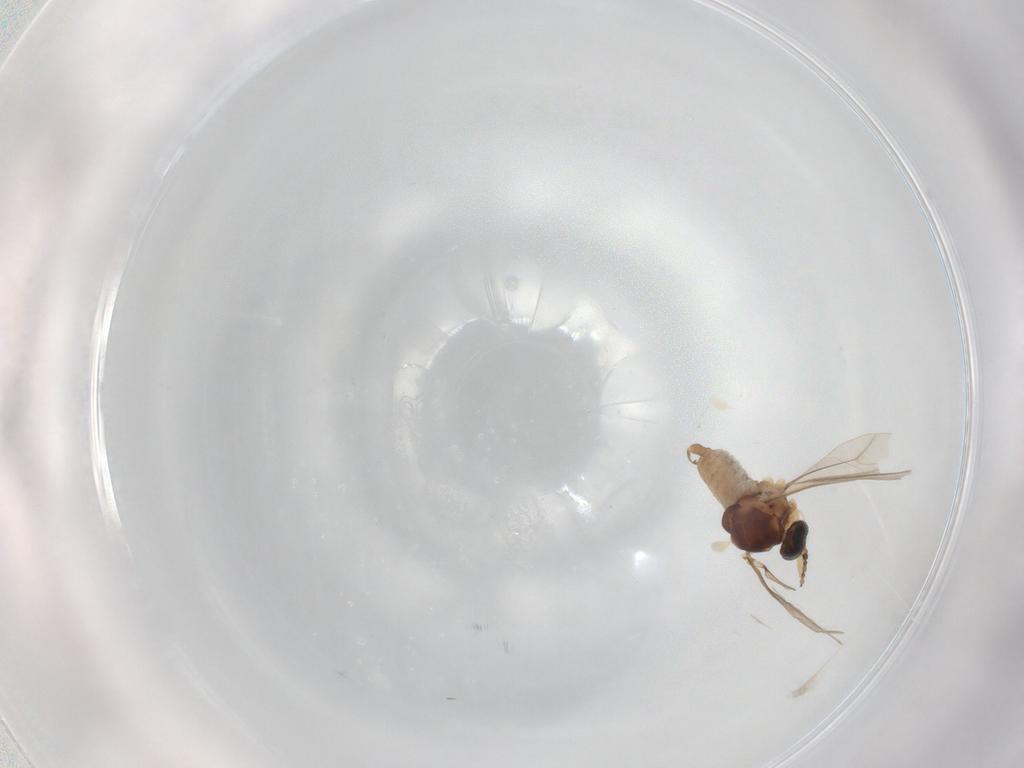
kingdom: Animalia
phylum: Arthropoda
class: Insecta
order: Diptera
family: Cecidomyiidae
